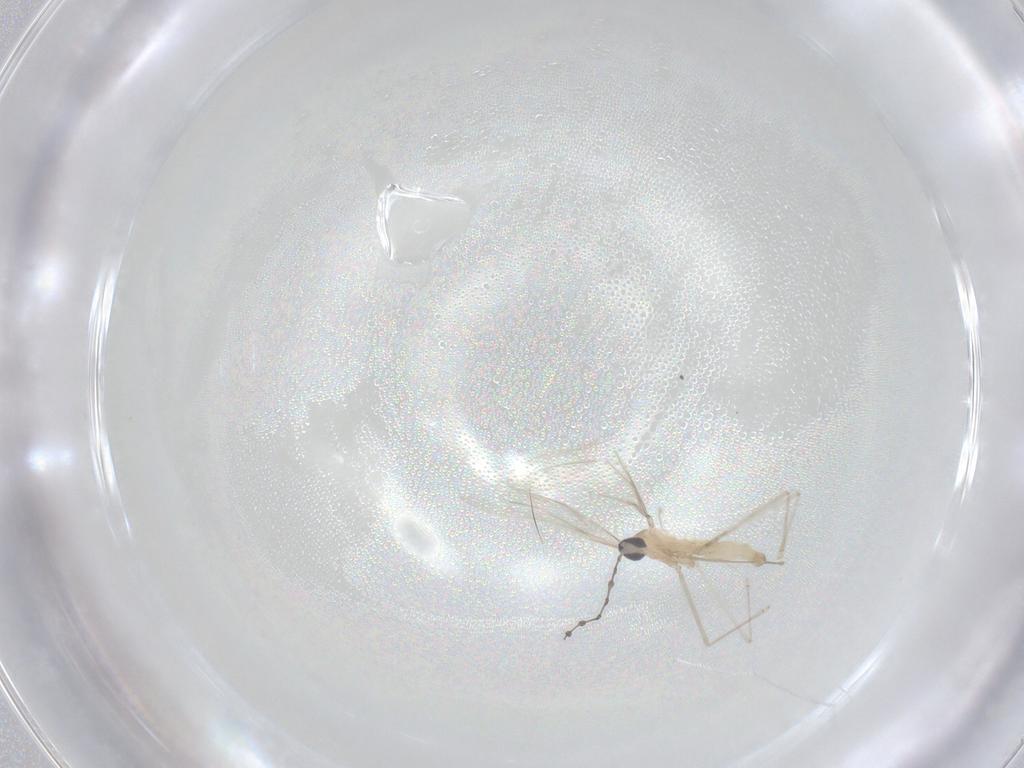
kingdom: Animalia
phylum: Arthropoda
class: Insecta
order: Diptera
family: Cecidomyiidae
